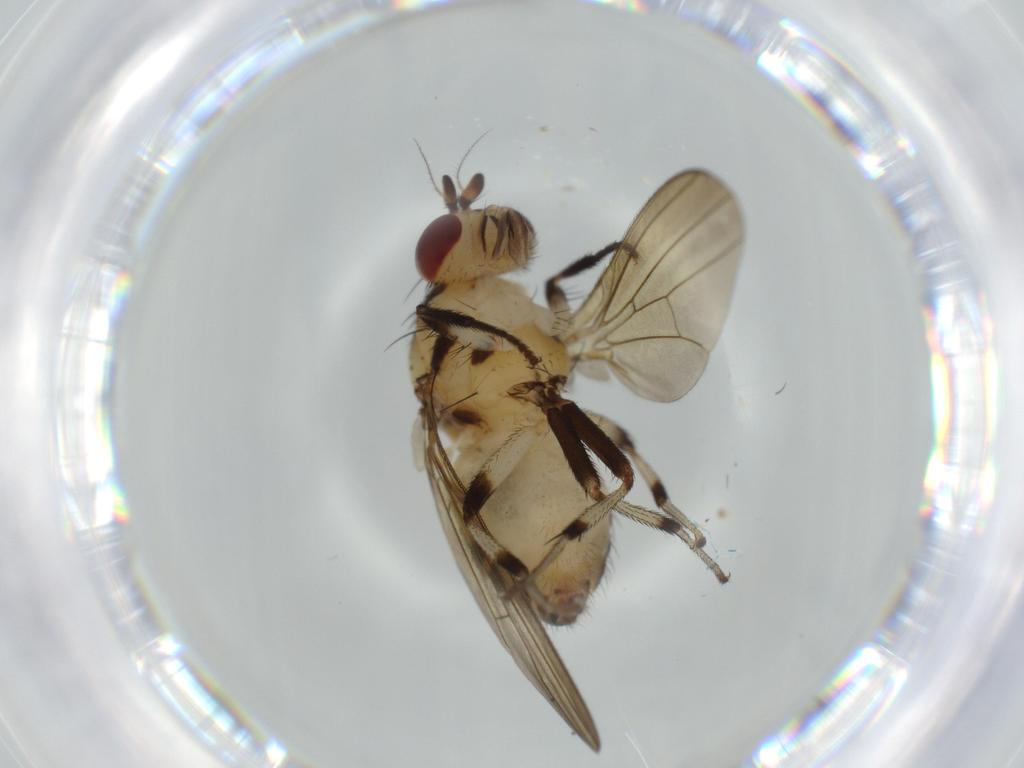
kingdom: Animalia
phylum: Arthropoda
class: Insecta
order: Diptera
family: Lauxaniidae
